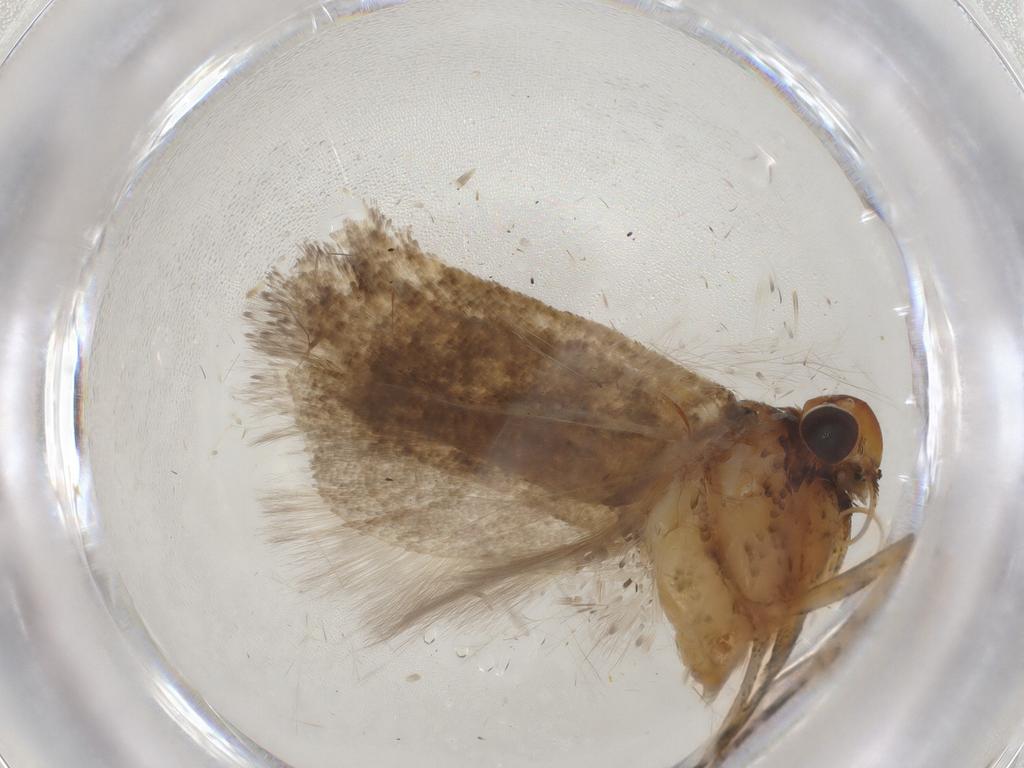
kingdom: Animalia
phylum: Arthropoda
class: Insecta
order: Lepidoptera
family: Gelechiidae
